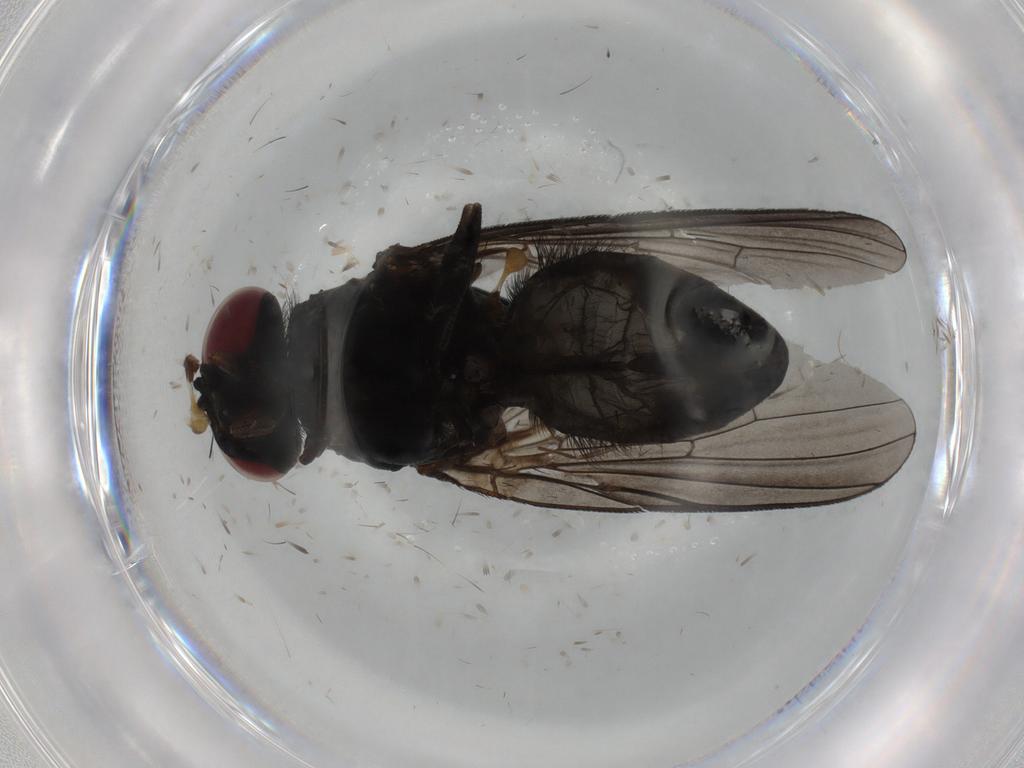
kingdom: Animalia
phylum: Arthropoda
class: Insecta
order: Diptera
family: Fannia
